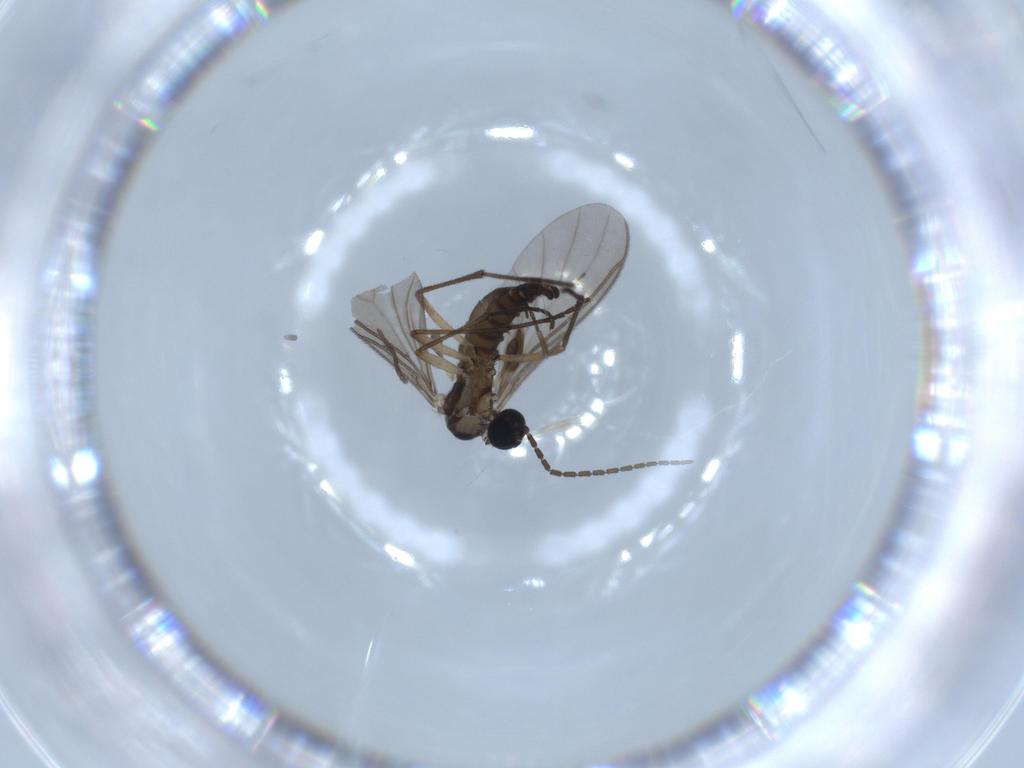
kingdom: Animalia
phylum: Arthropoda
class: Insecta
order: Diptera
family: Sciaridae
